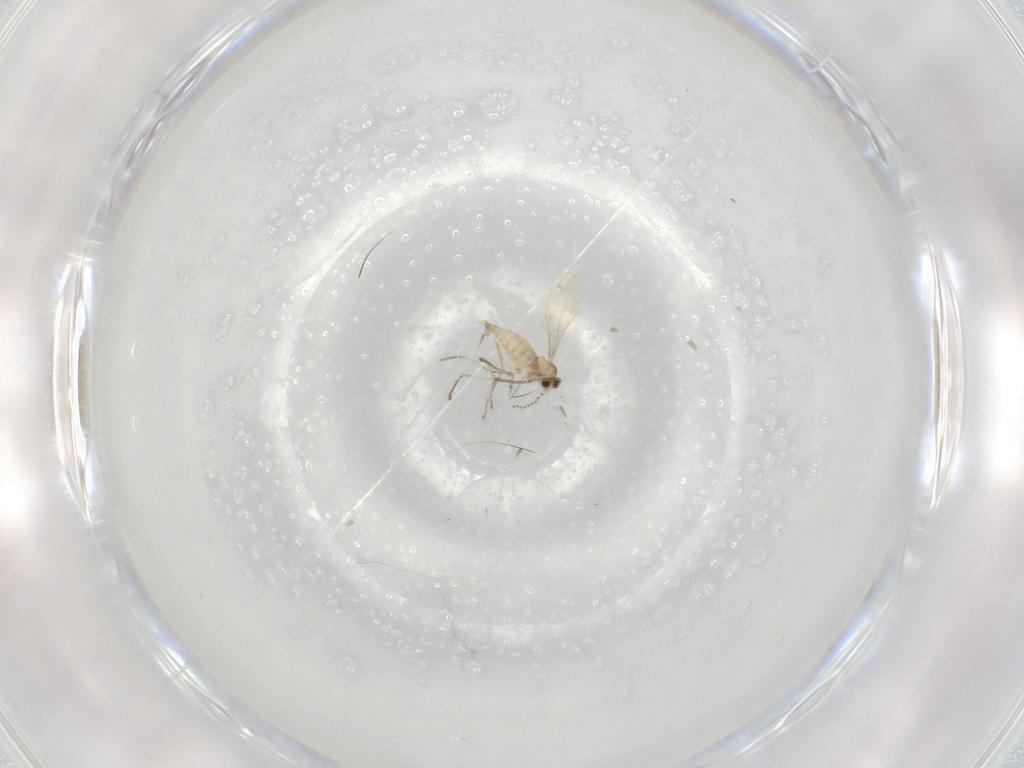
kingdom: Animalia
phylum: Arthropoda
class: Insecta
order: Diptera
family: Cecidomyiidae
